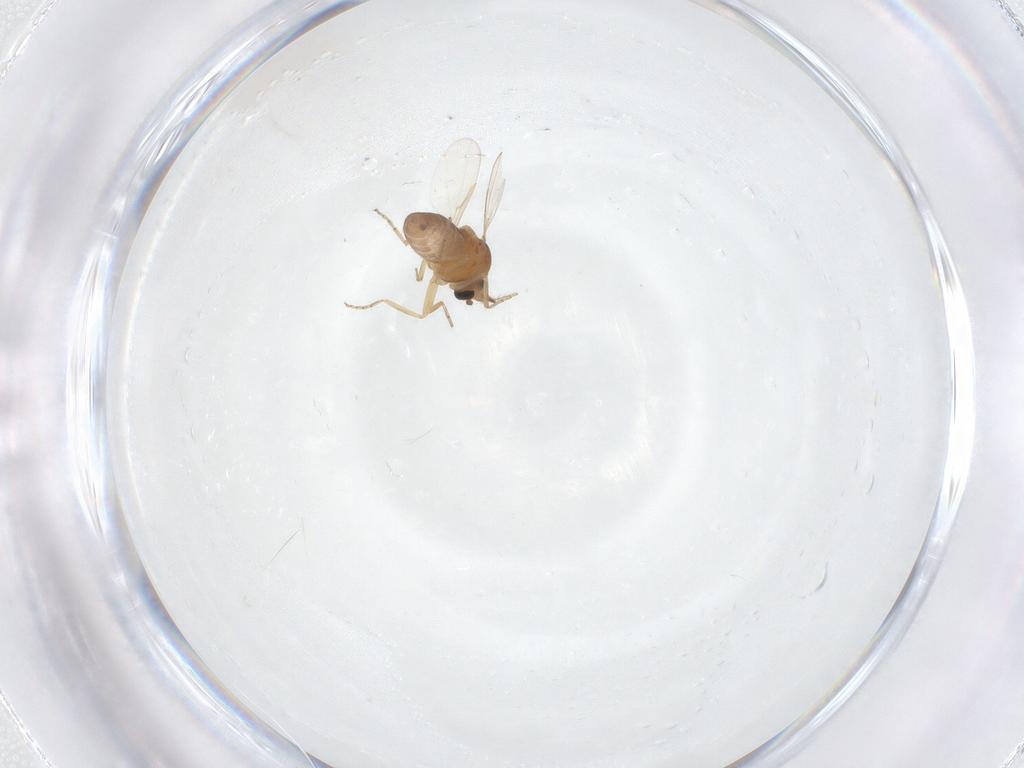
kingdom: Animalia
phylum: Arthropoda
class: Insecta
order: Diptera
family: Ceratopogonidae
